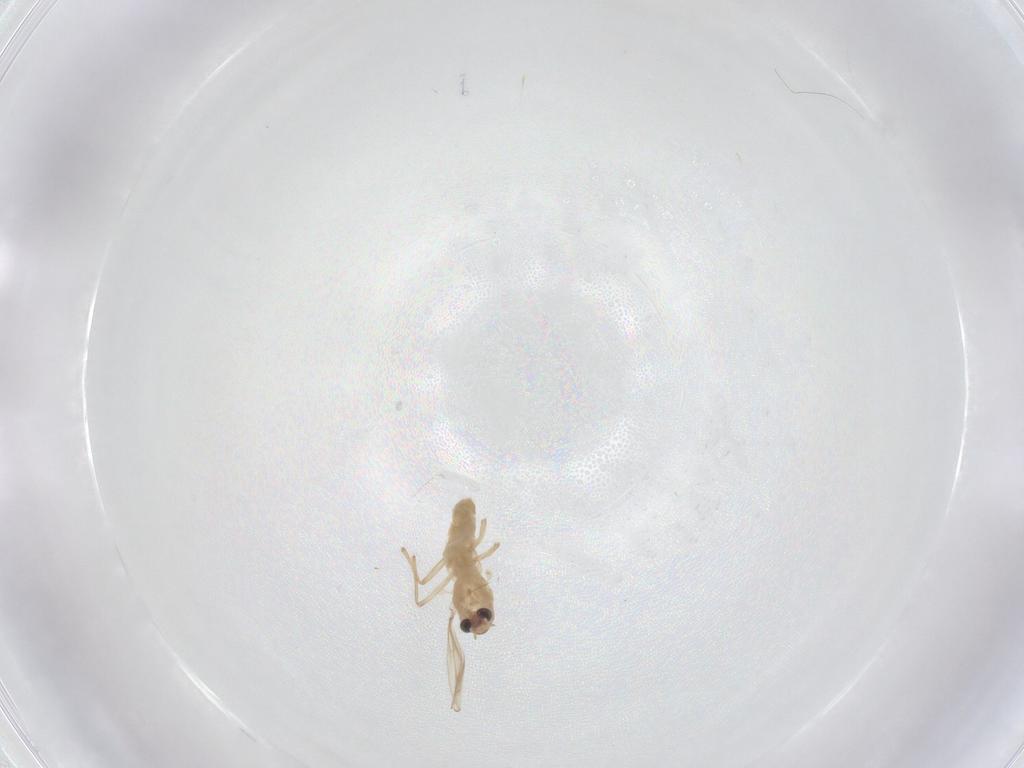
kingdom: Animalia
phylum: Arthropoda
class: Insecta
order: Diptera
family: Chironomidae
